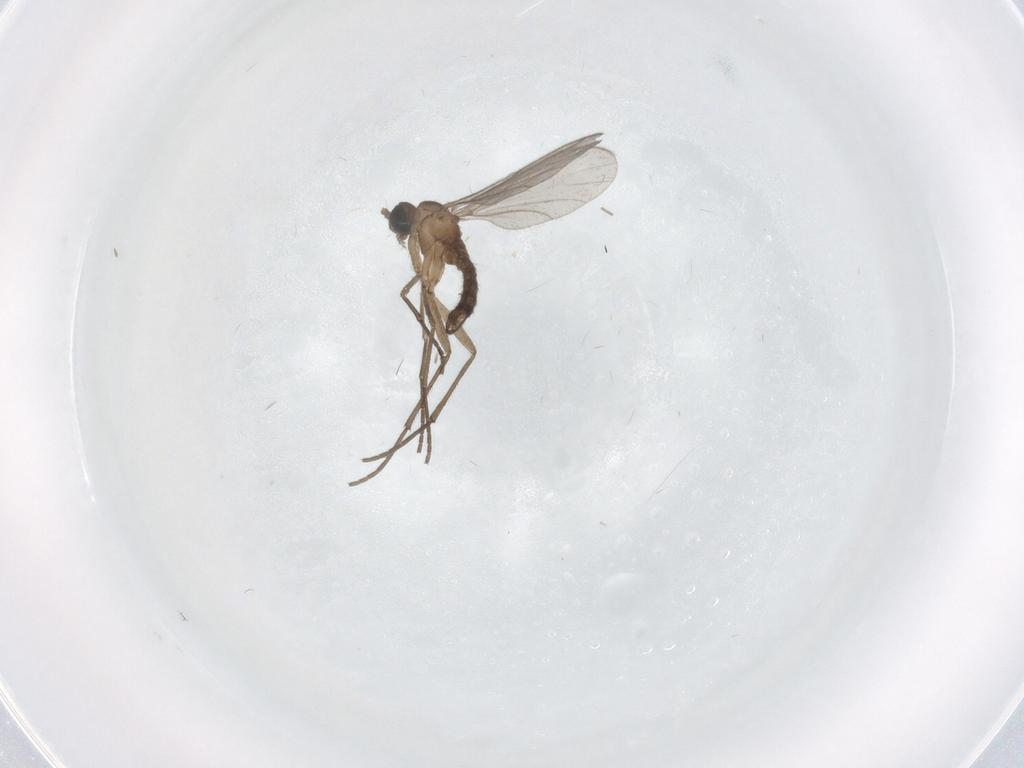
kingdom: Animalia
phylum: Arthropoda
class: Insecta
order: Diptera
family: Sciaridae
